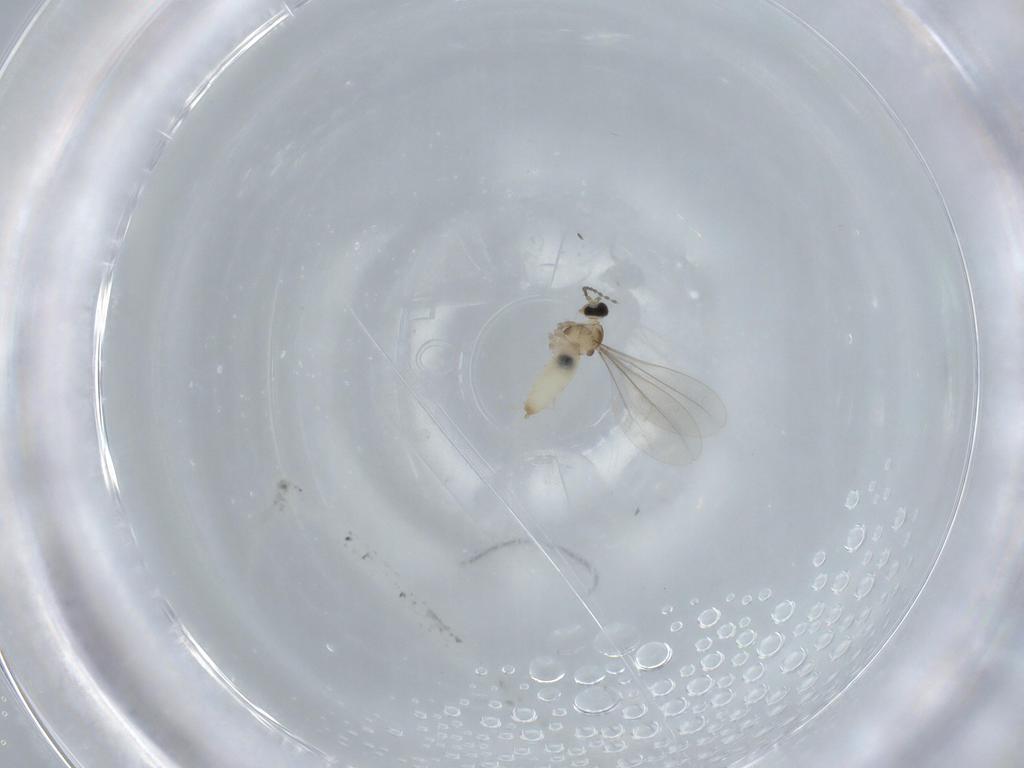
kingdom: Animalia
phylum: Arthropoda
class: Insecta
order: Diptera
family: Cecidomyiidae
